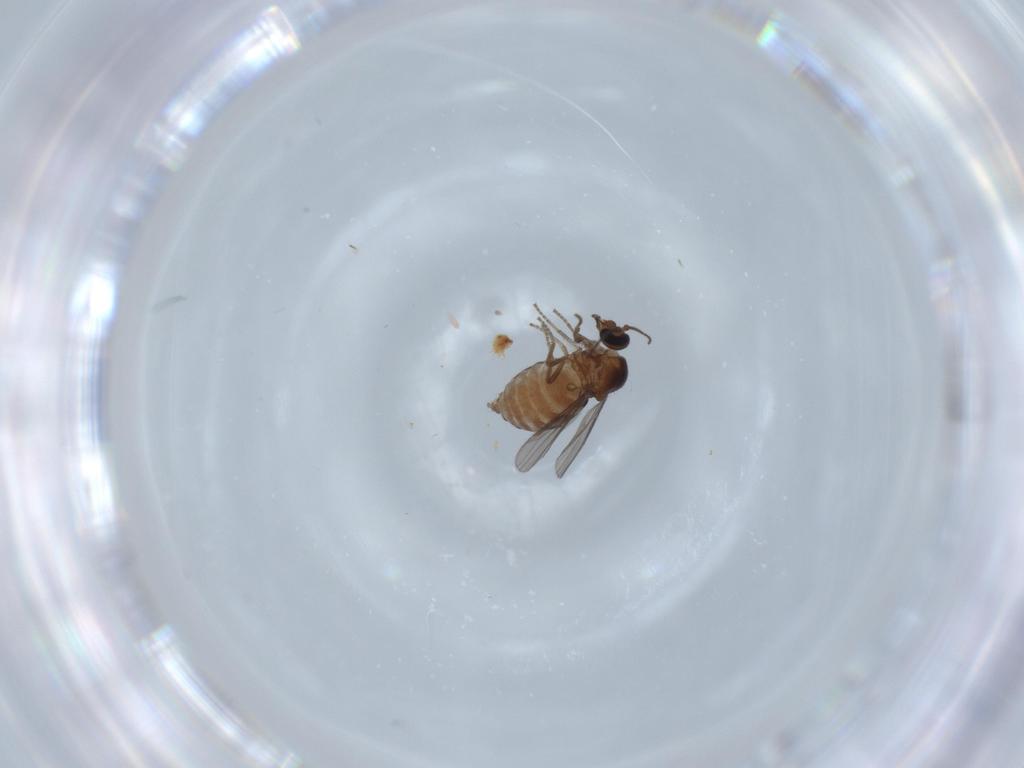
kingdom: Animalia
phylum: Arthropoda
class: Insecta
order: Diptera
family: Ceratopogonidae
